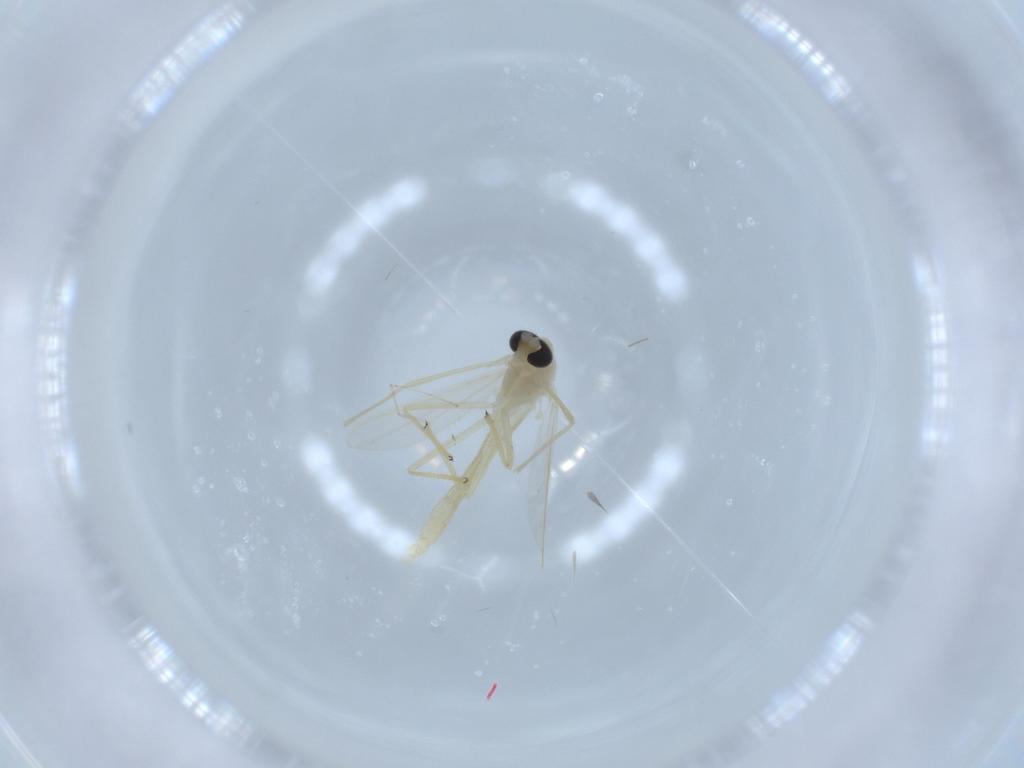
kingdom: Animalia
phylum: Arthropoda
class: Insecta
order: Diptera
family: Chironomidae
